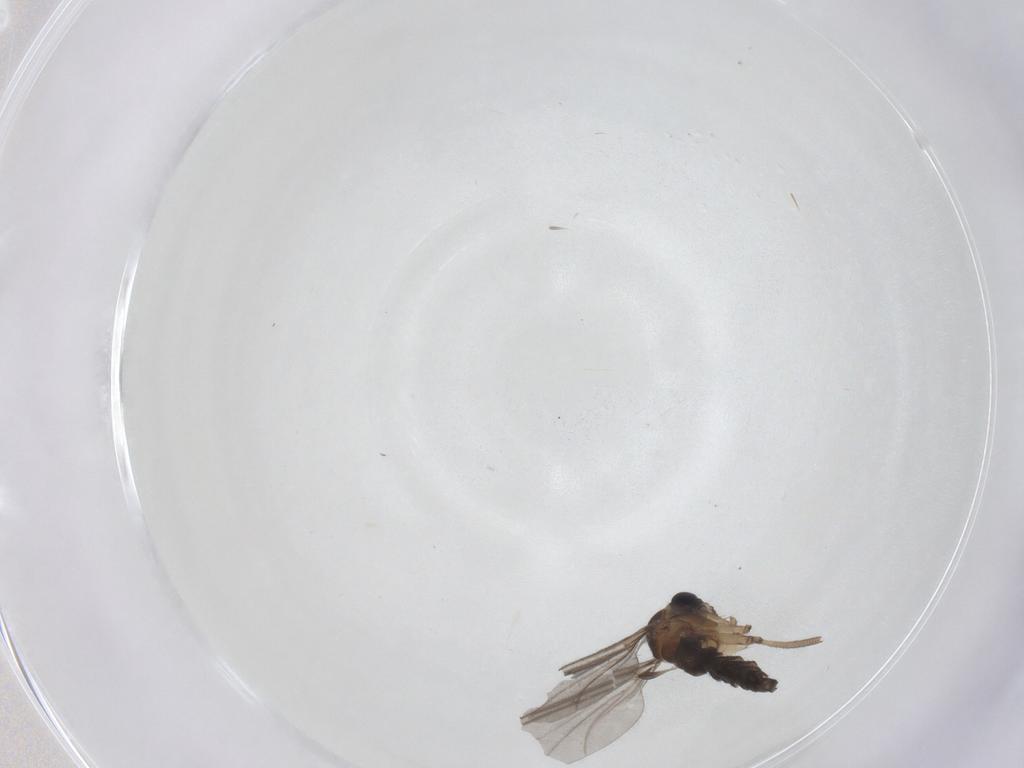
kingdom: Animalia
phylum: Arthropoda
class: Insecta
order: Diptera
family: Sciaridae
